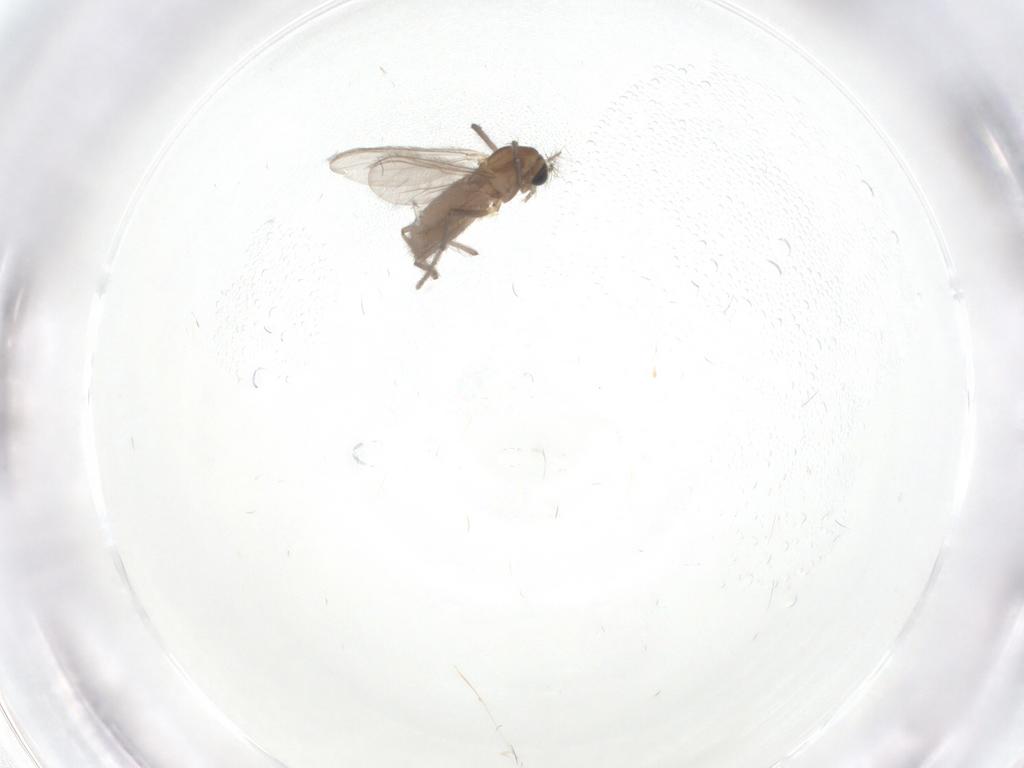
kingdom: Animalia
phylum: Arthropoda
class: Insecta
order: Diptera
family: Chironomidae
